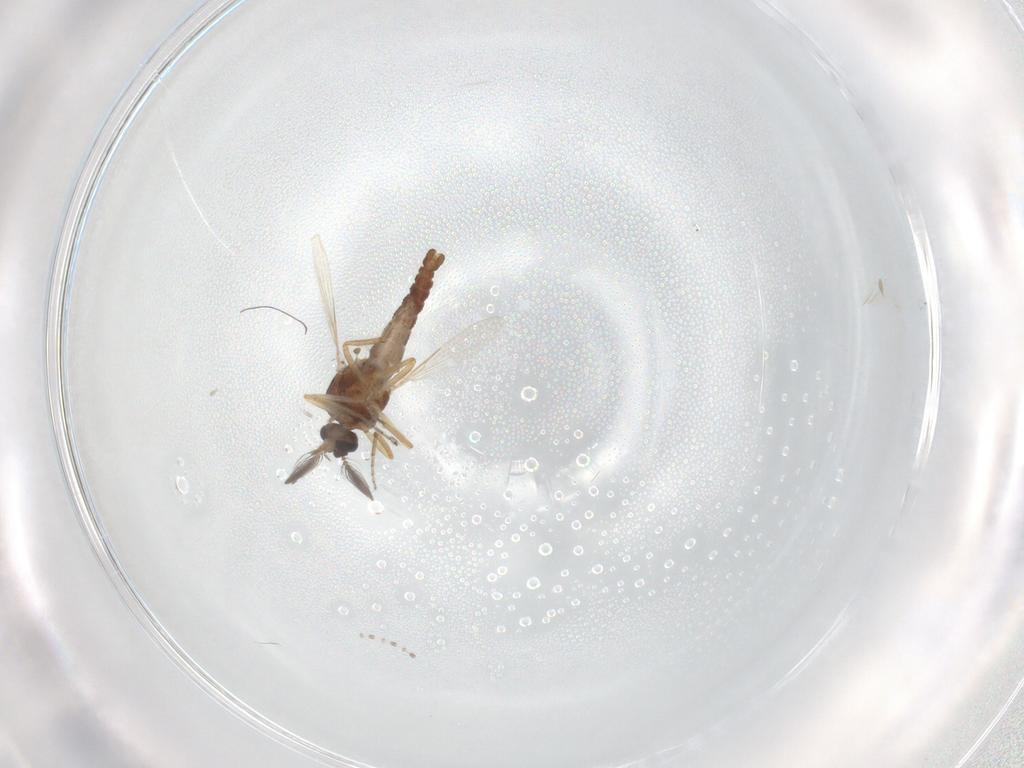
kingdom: Animalia
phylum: Arthropoda
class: Insecta
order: Diptera
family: Ceratopogonidae
